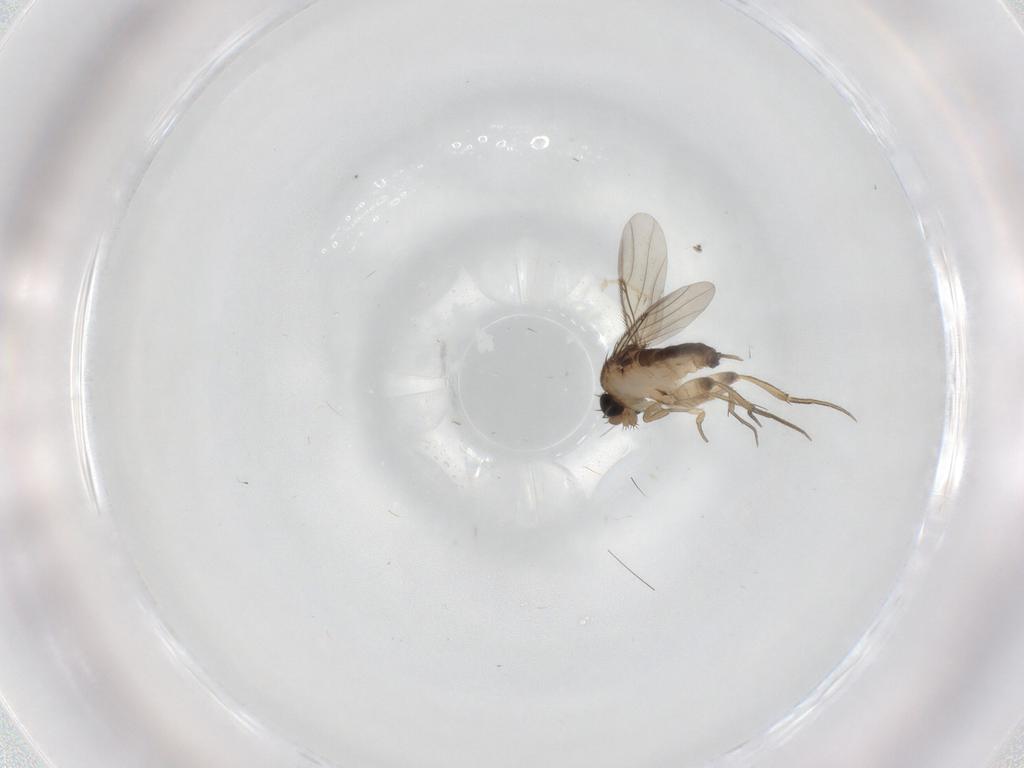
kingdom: Animalia
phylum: Arthropoda
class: Insecta
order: Diptera
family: Phoridae
